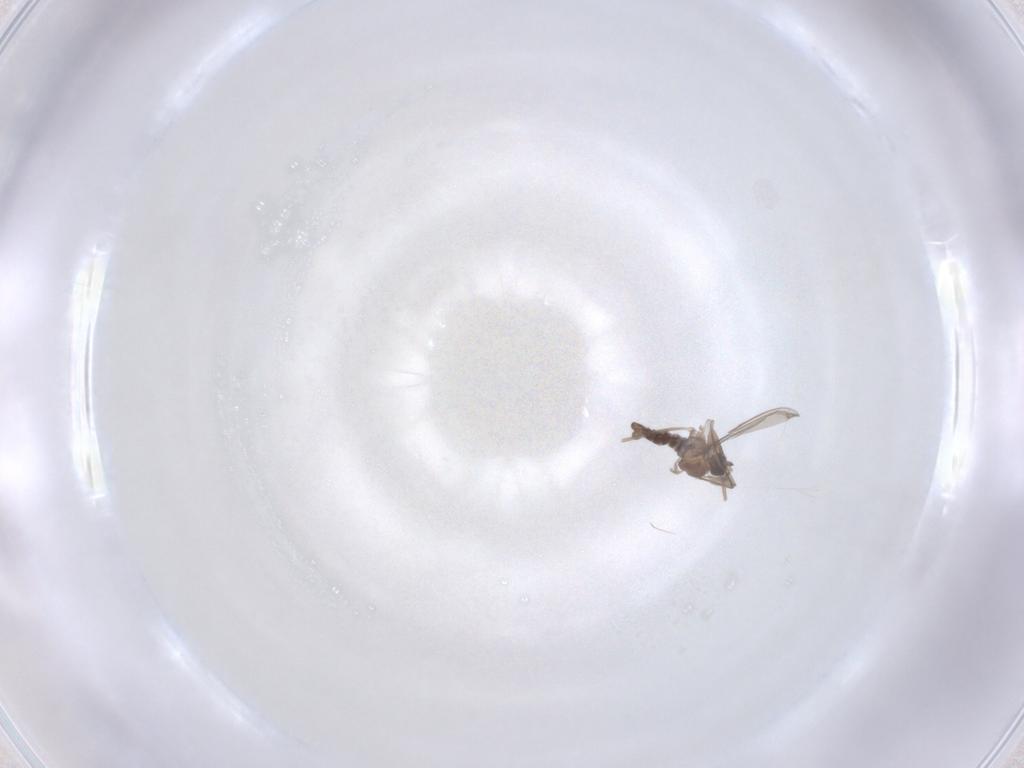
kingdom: Animalia
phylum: Arthropoda
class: Insecta
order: Diptera
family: Cecidomyiidae
